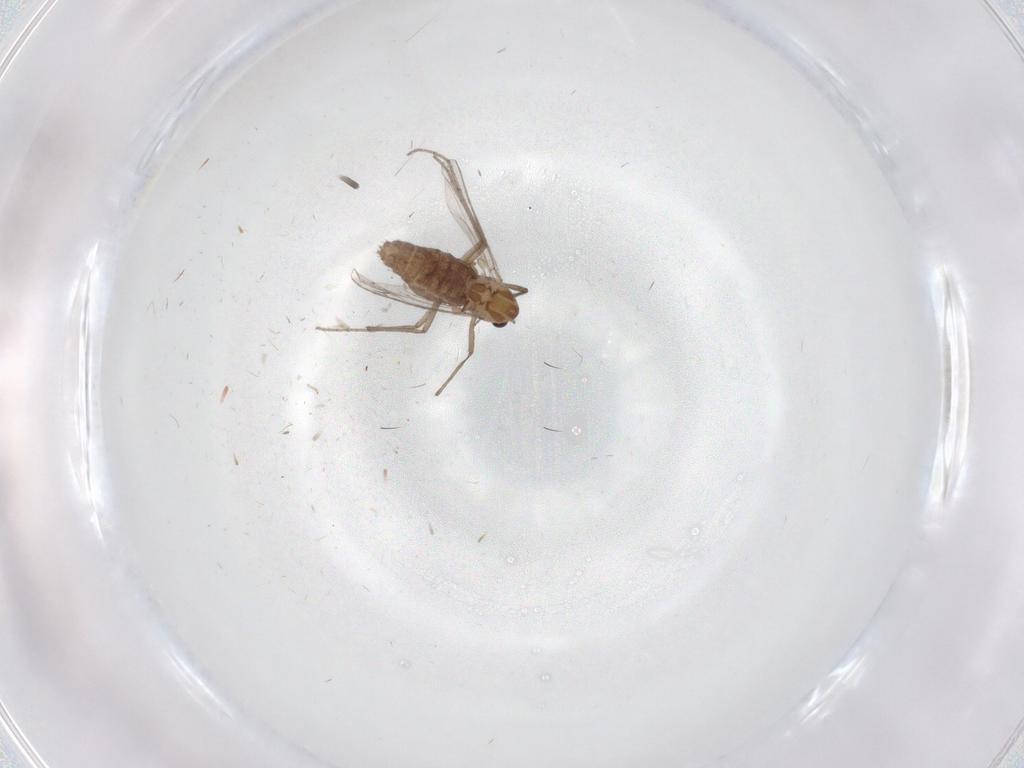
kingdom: Animalia
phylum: Arthropoda
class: Insecta
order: Diptera
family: Chironomidae
